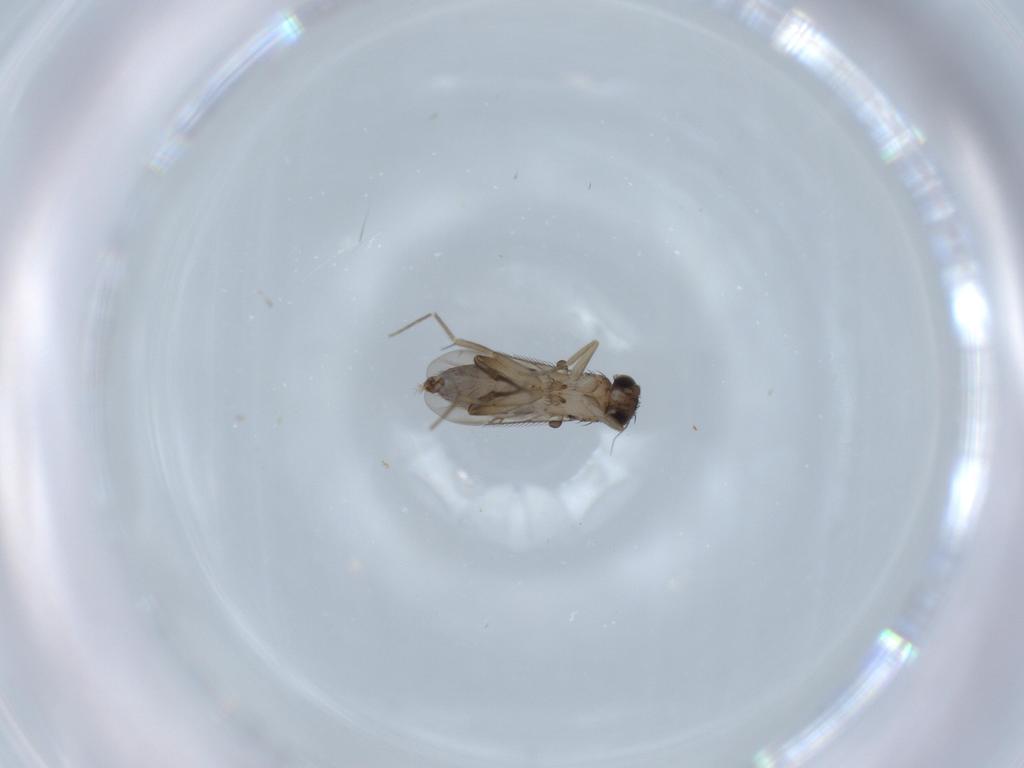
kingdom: Animalia
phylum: Arthropoda
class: Insecta
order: Diptera
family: Phoridae
